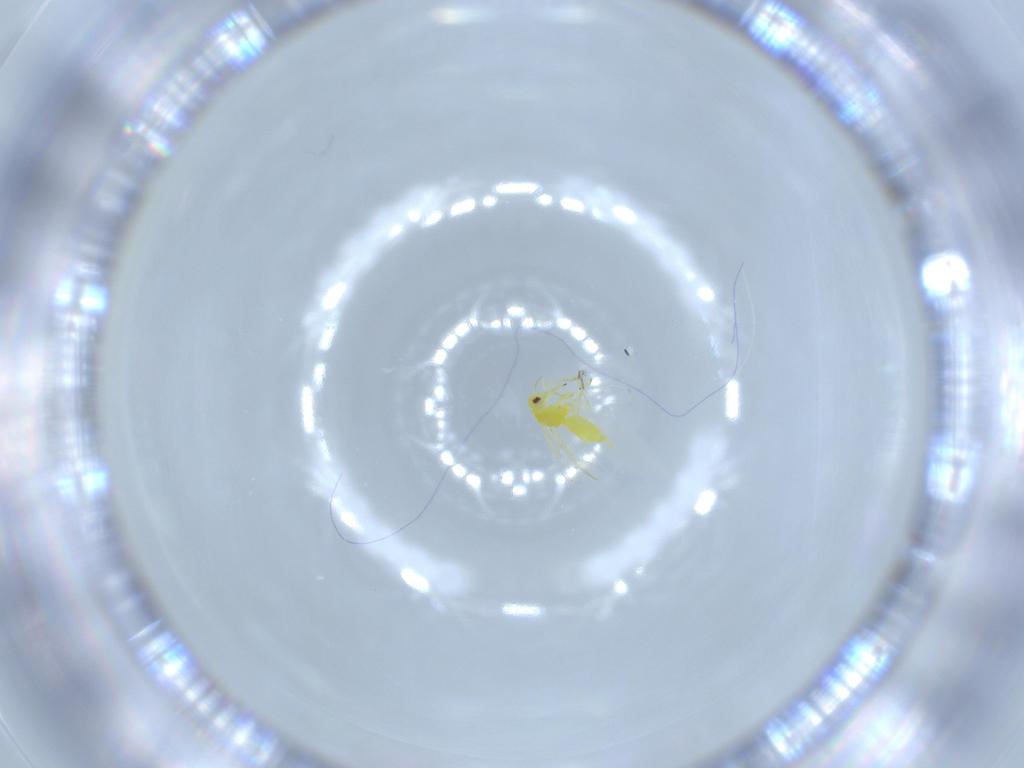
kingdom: Animalia
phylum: Arthropoda
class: Insecta
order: Hemiptera
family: Aleyrodidae
